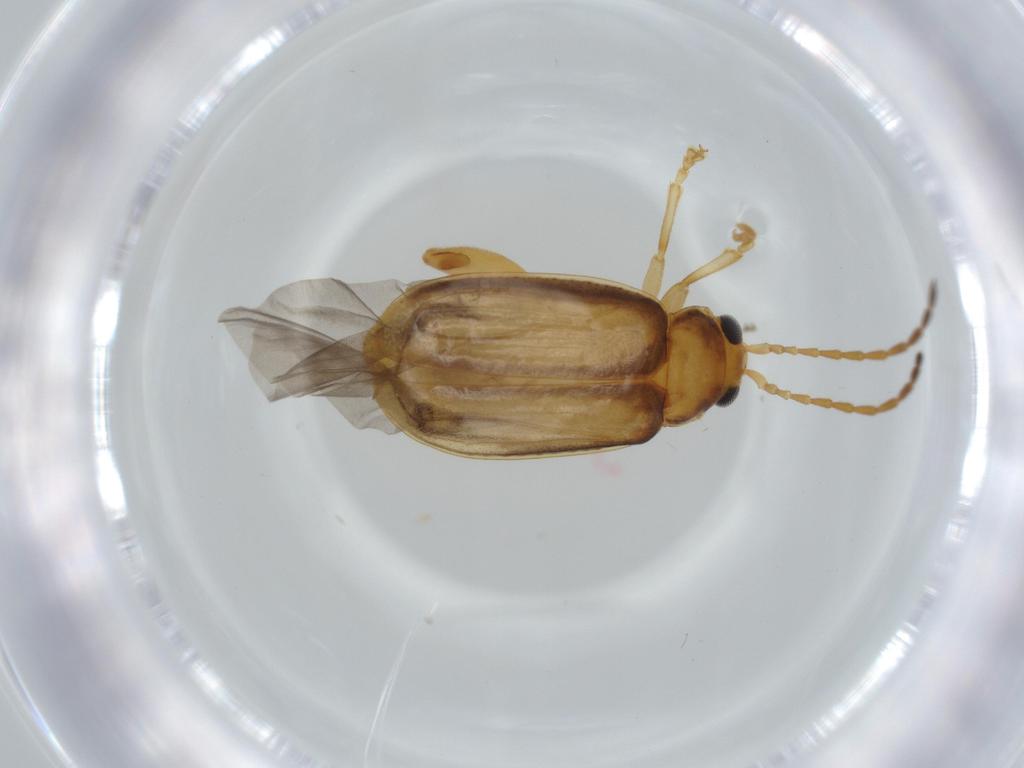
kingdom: Animalia
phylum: Arthropoda
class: Insecta
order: Coleoptera
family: Chrysomelidae
